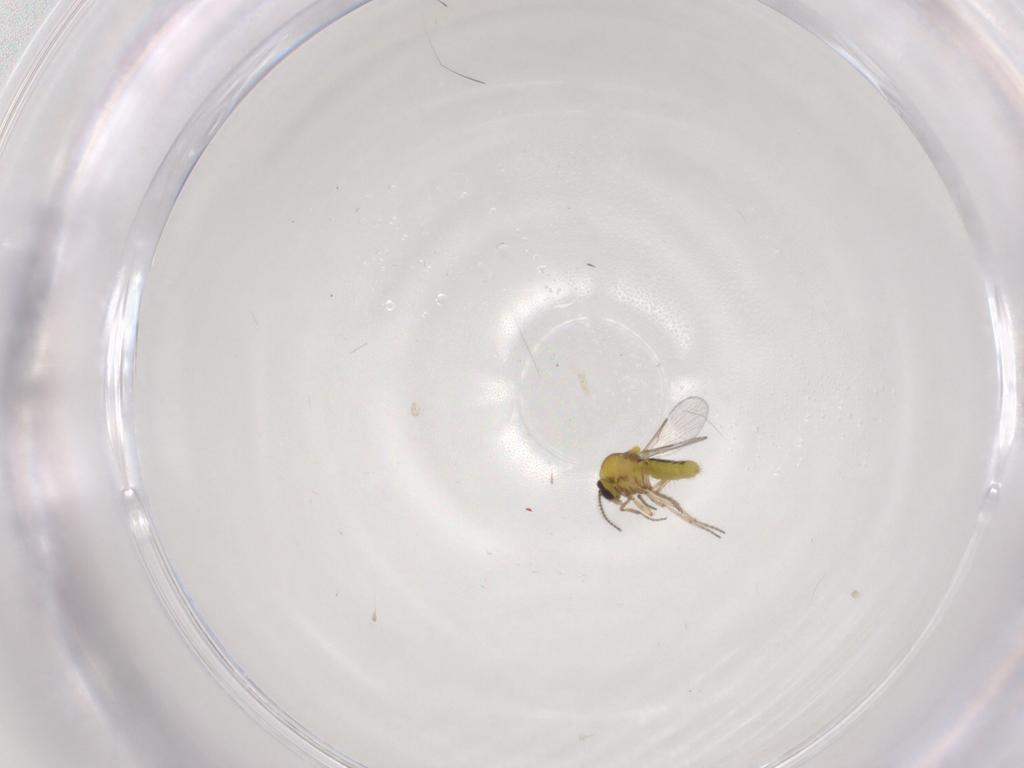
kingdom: Animalia
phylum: Arthropoda
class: Insecta
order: Diptera
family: Ceratopogonidae
